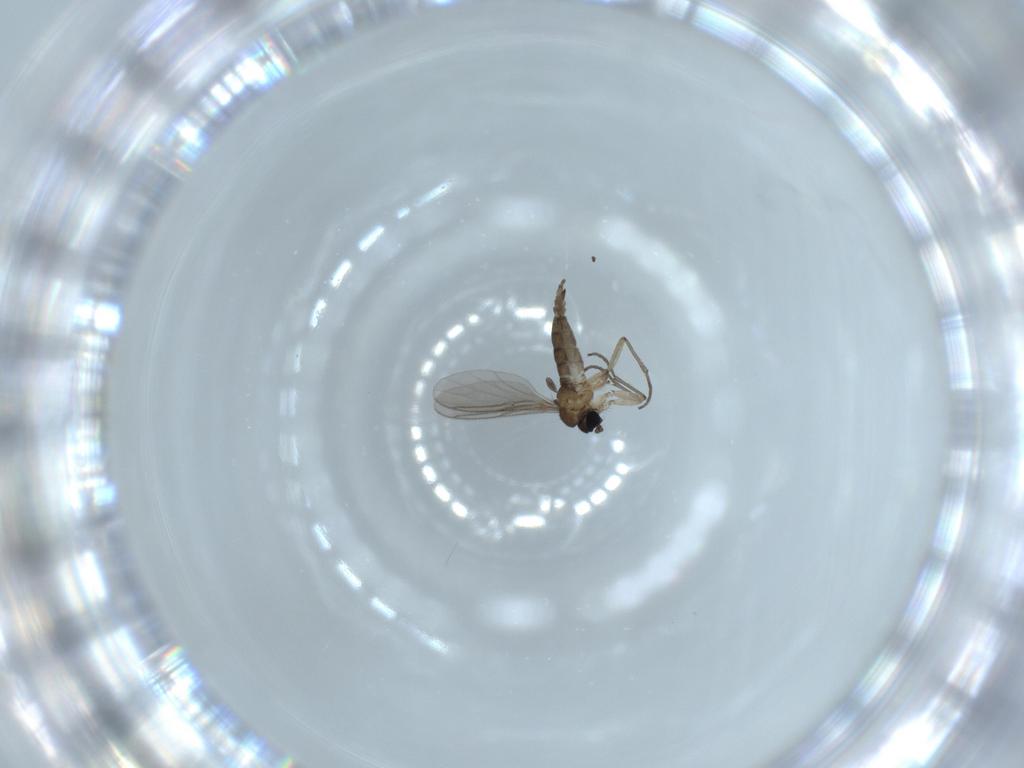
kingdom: Animalia
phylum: Arthropoda
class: Insecta
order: Diptera
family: Sciaridae
